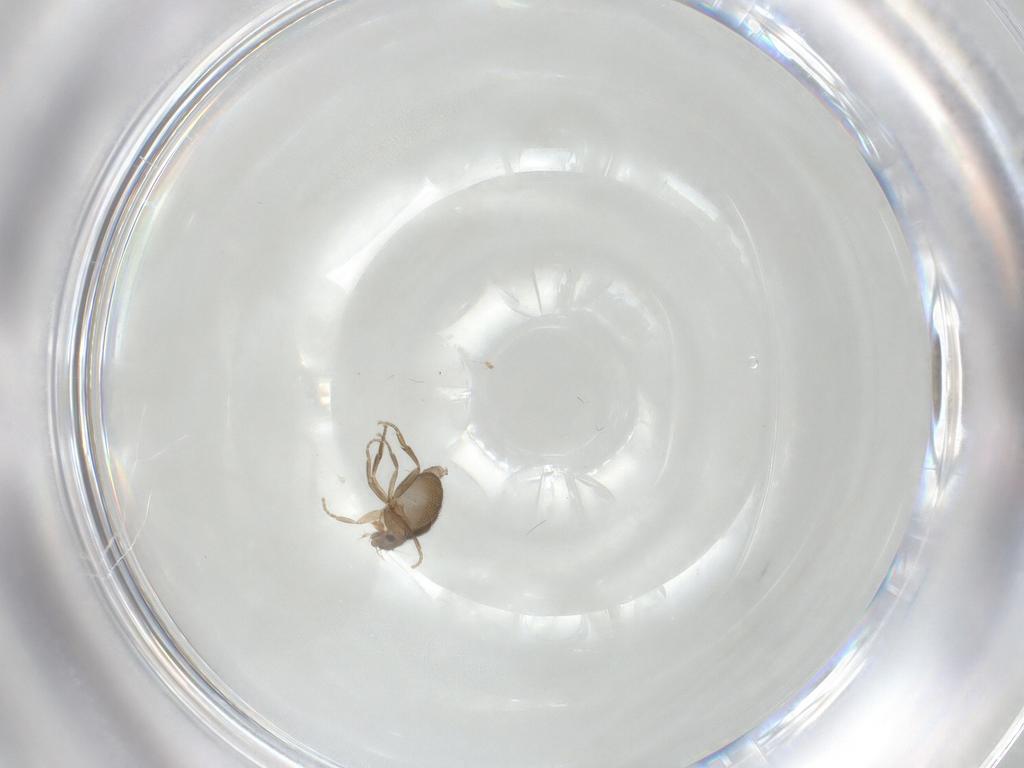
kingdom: Animalia
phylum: Arthropoda
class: Insecta
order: Diptera
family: Phoridae
